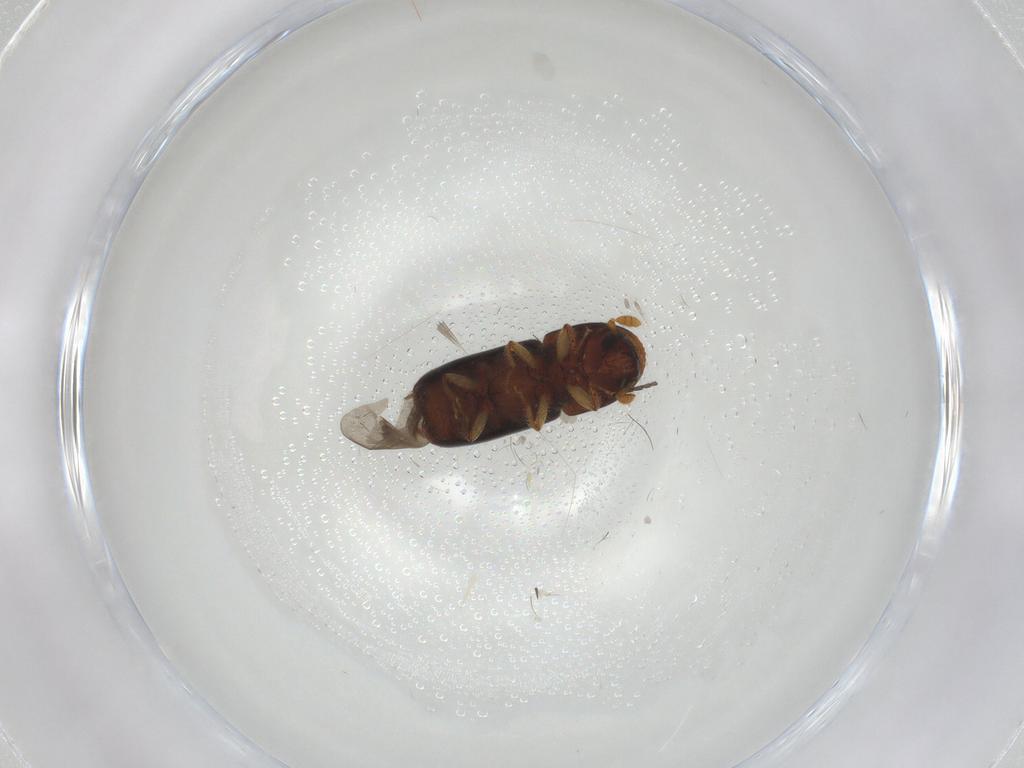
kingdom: Animalia
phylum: Arthropoda
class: Insecta
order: Coleoptera
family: Curculionidae
